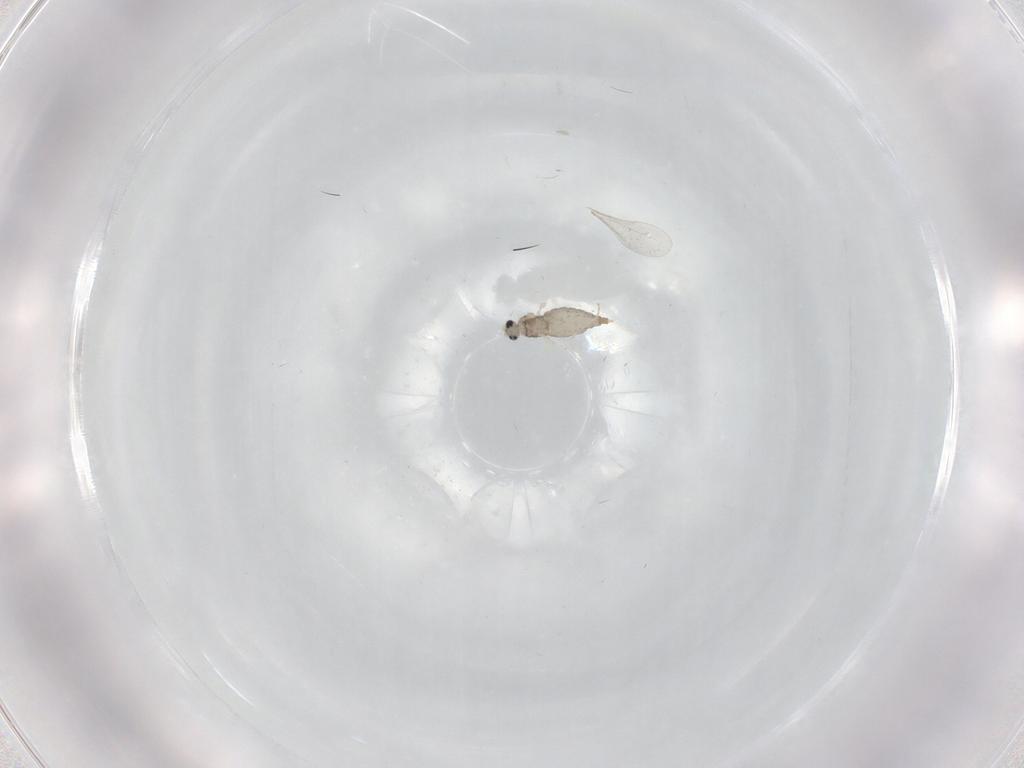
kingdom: Animalia
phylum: Arthropoda
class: Insecta
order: Diptera
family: Cecidomyiidae
